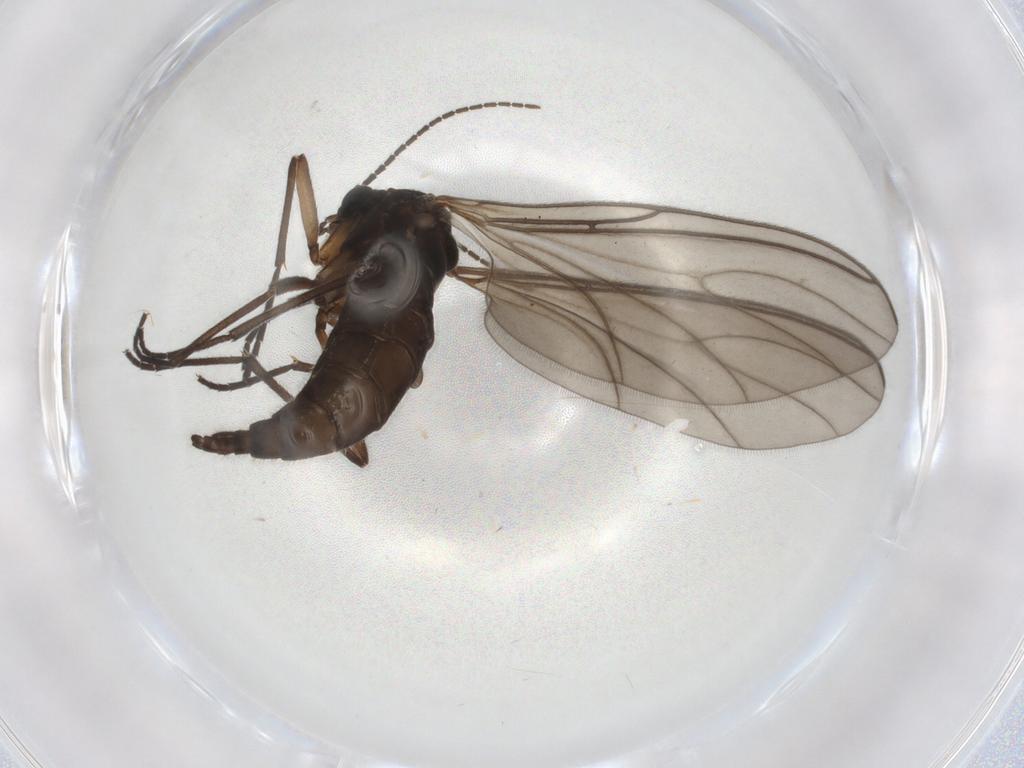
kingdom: Animalia
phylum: Arthropoda
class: Insecta
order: Diptera
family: Sciaridae
